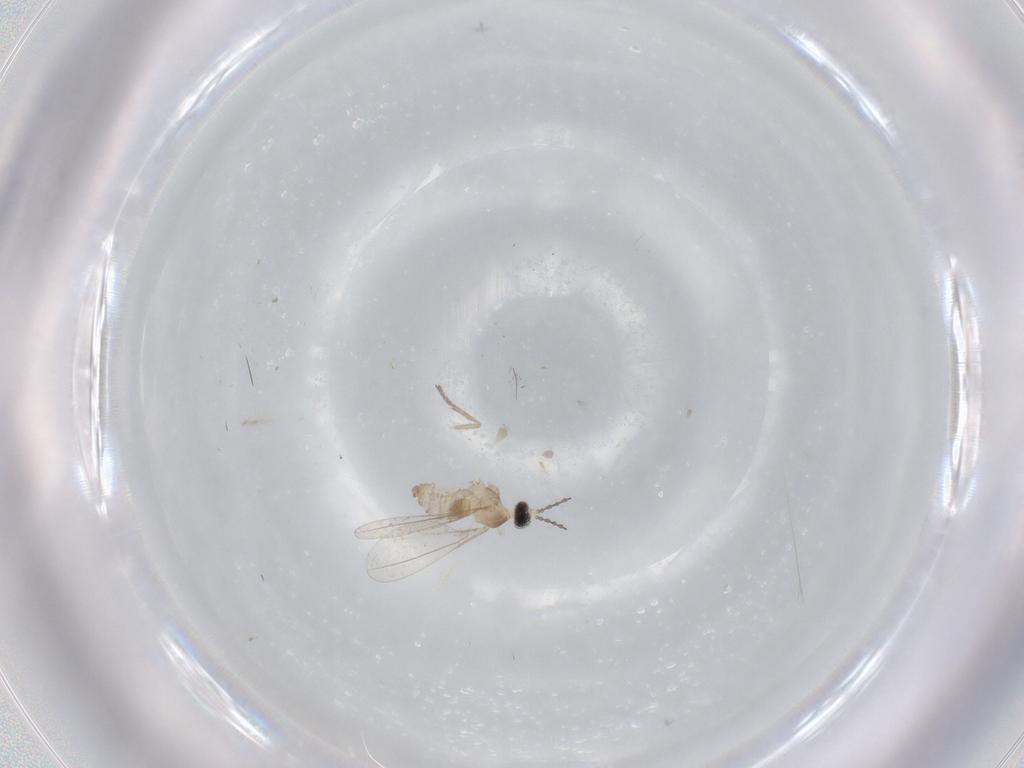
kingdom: Animalia
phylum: Arthropoda
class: Insecta
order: Diptera
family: Cecidomyiidae
